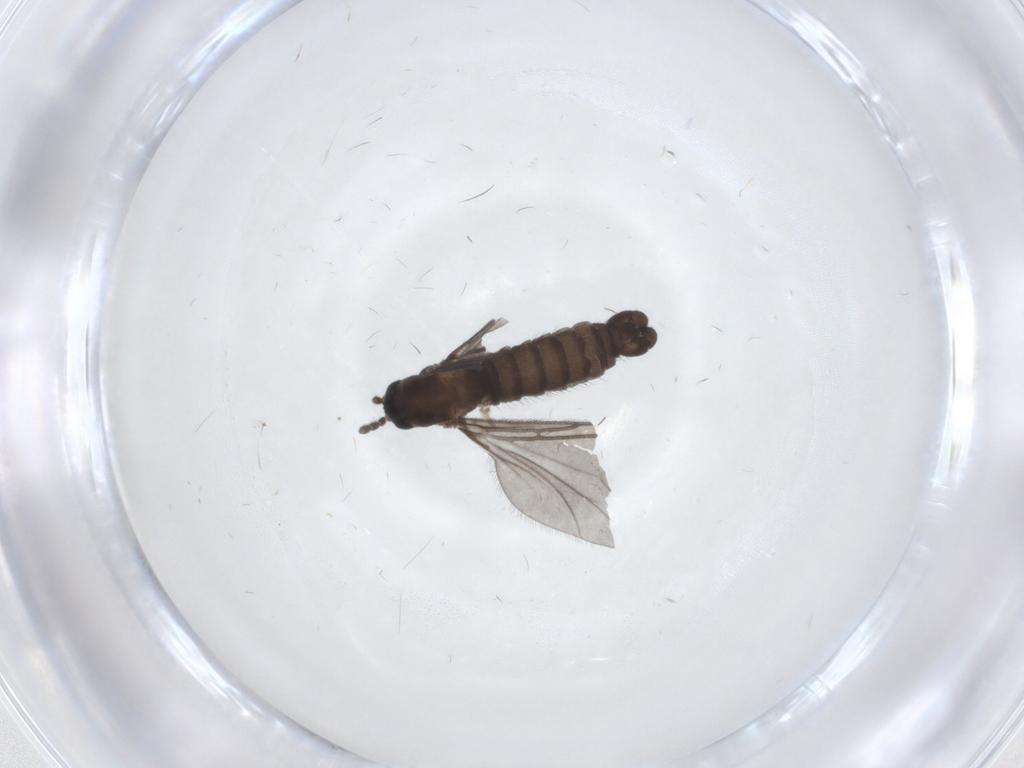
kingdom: Animalia
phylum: Arthropoda
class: Insecta
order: Diptera
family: Sciaridae
